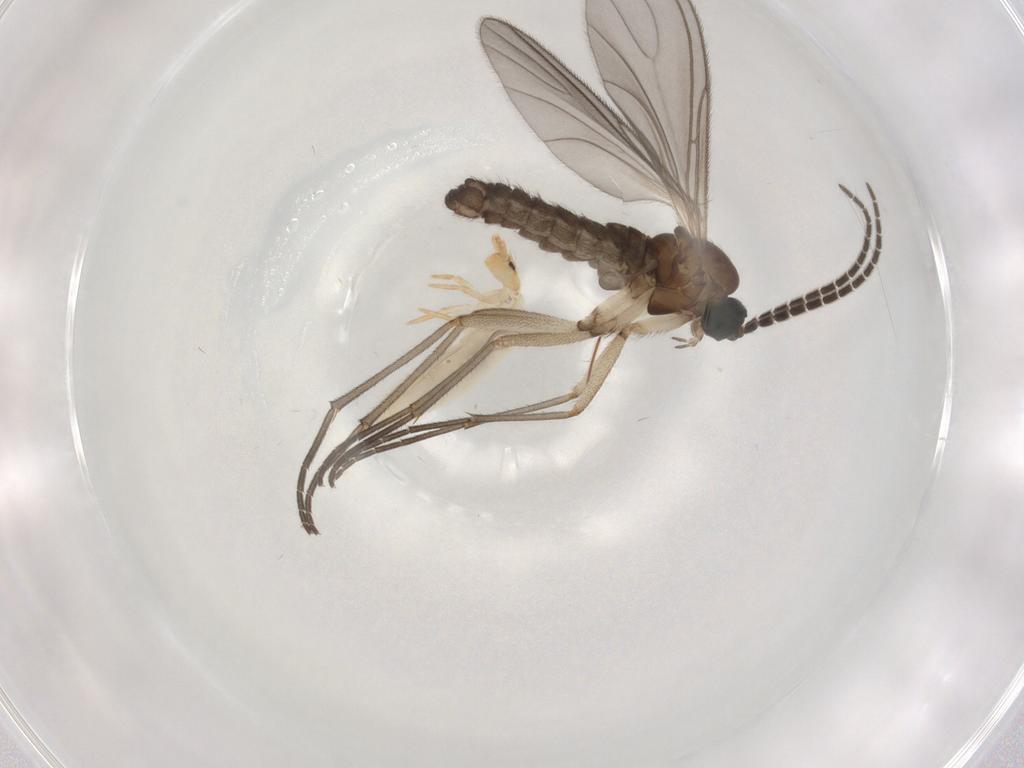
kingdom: Animalia
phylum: Arthropoda
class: Insecta
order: Diptera
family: Sciaridae
